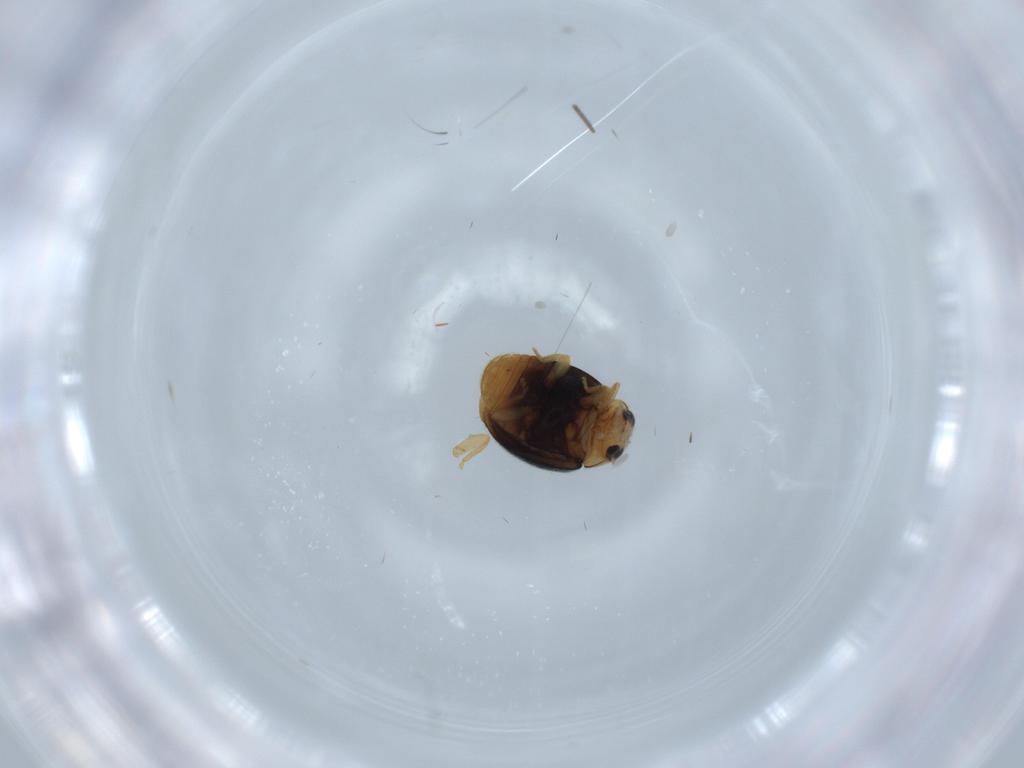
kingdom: Animalia
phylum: Arthropoda
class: Insecta
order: Coleoptera
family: Coccinellidae
